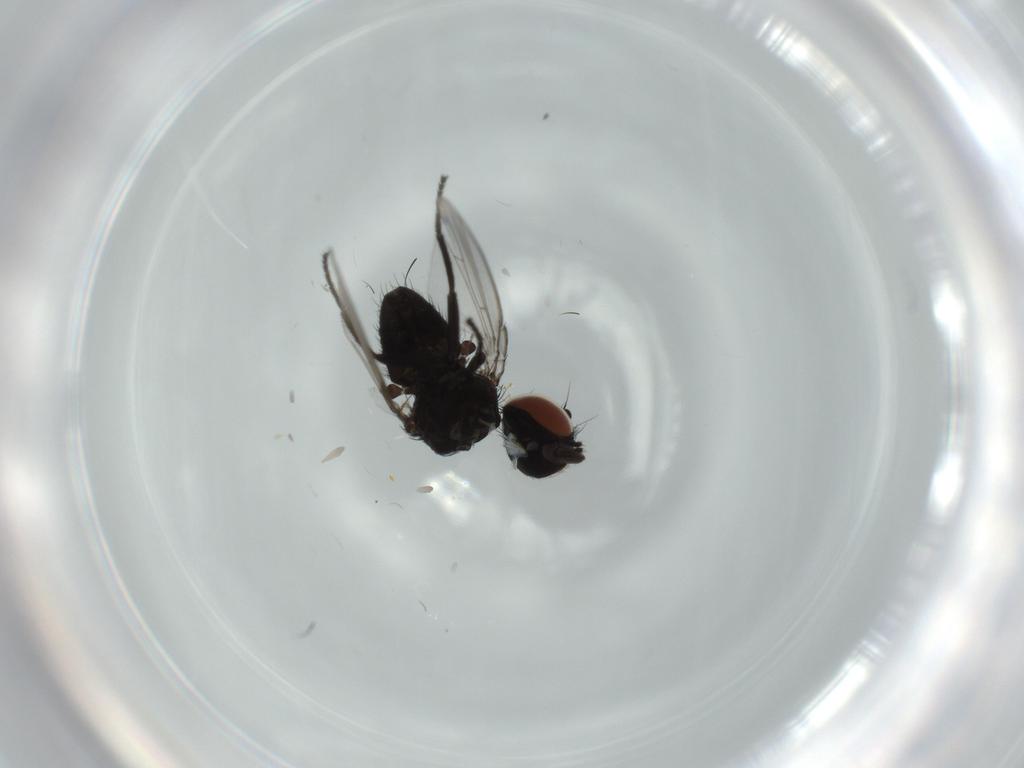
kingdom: Animalia
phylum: Arthropoda
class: Insecta
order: Diptera
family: Milichiidae
